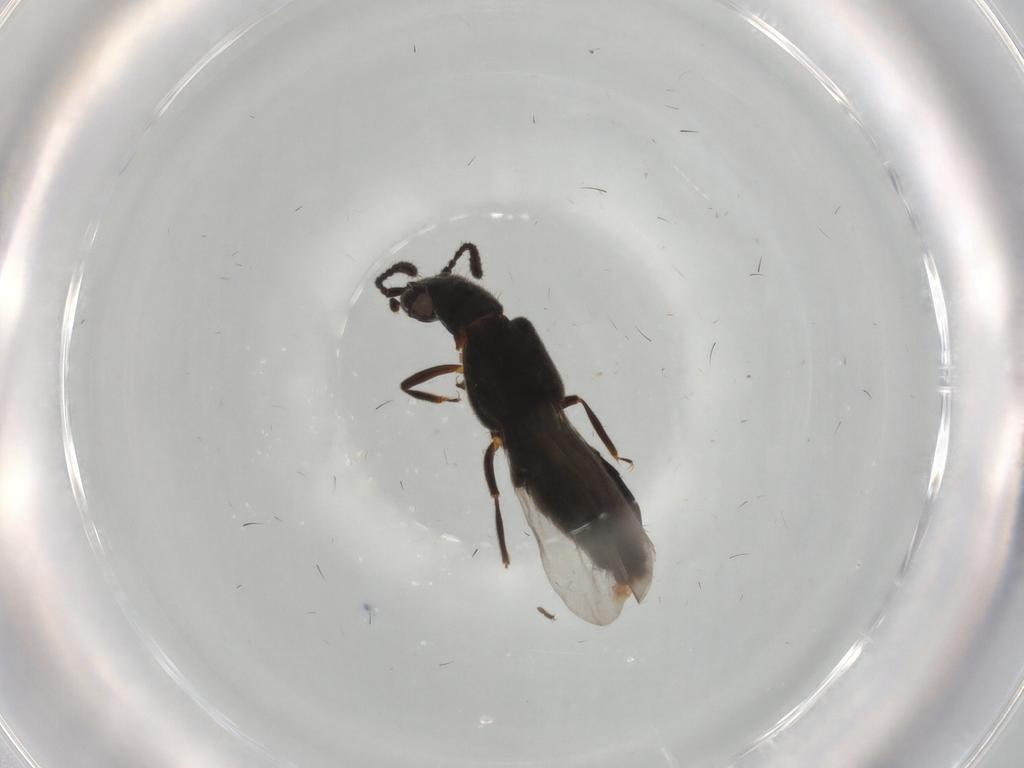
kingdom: Animalia
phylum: Arthropoda
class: Insecta
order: Coleoptera
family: Staphylinidae
